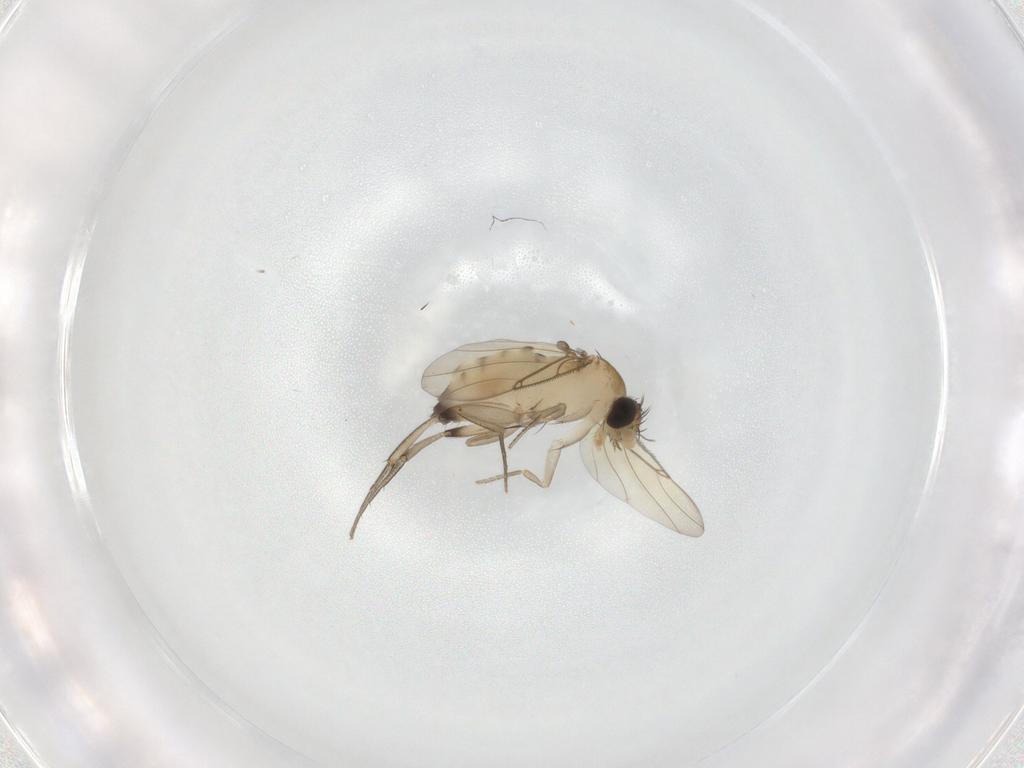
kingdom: Animalia
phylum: Arthropoda
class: Insecta
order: Diptera
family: Phoridae
